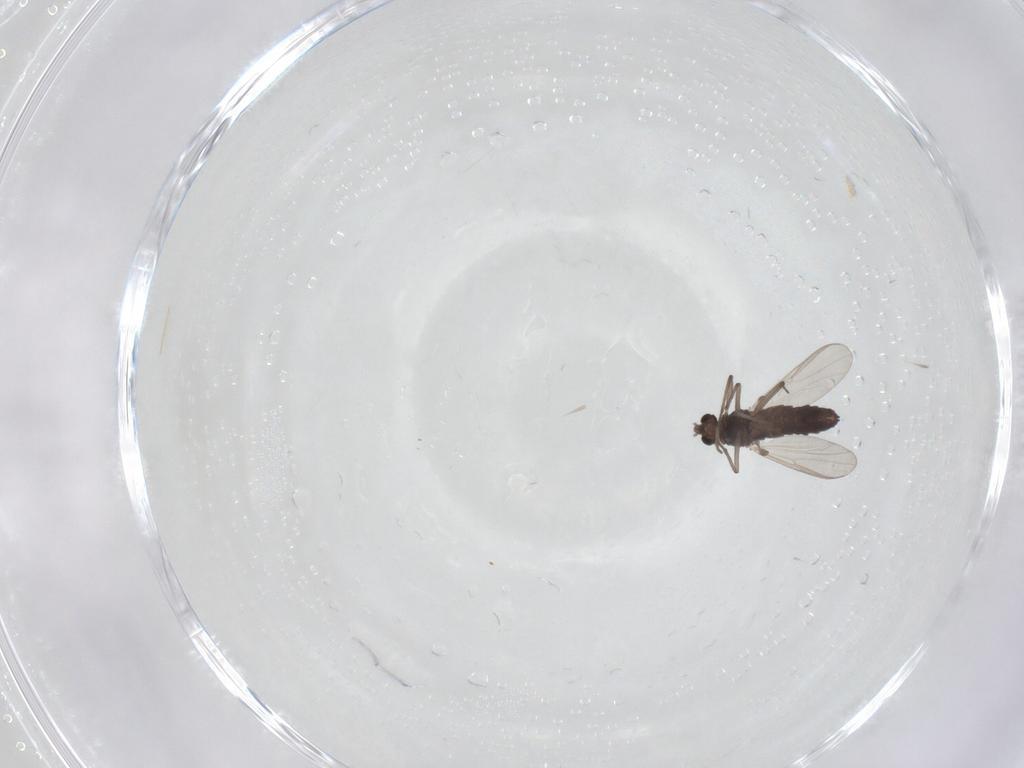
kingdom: Animalia
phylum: Arthropoda
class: Insecta
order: Diptera
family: Chironomidae
